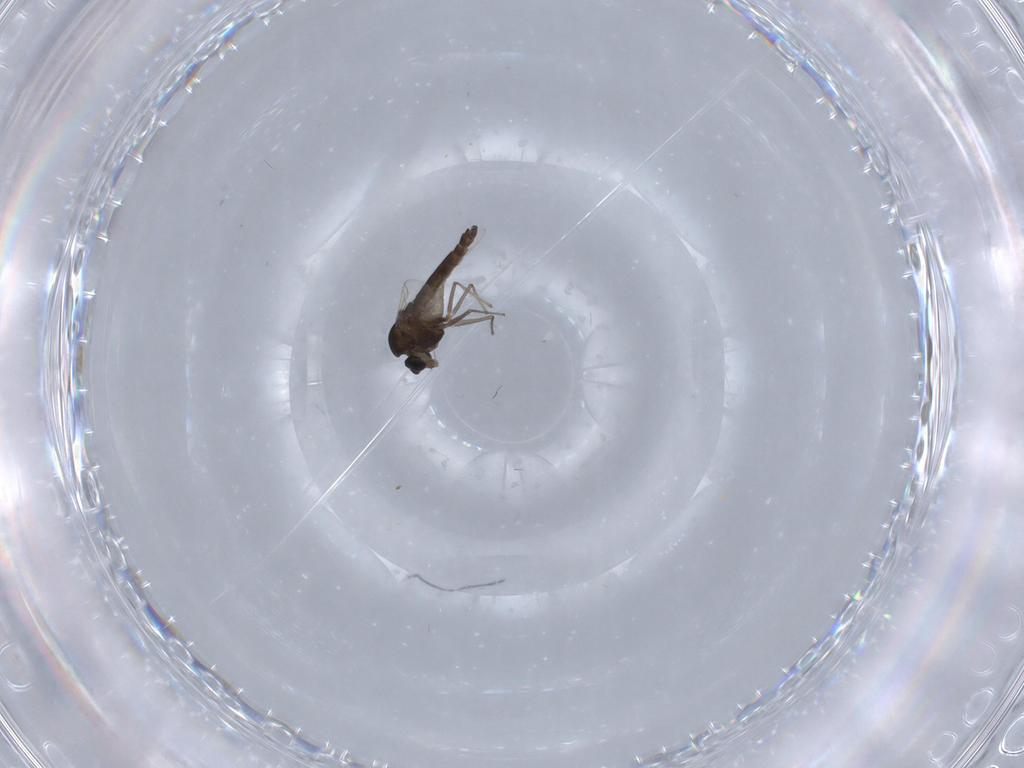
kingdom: Animalia
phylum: Arthropoda
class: Insecta
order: Diptera
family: Chironomidae
